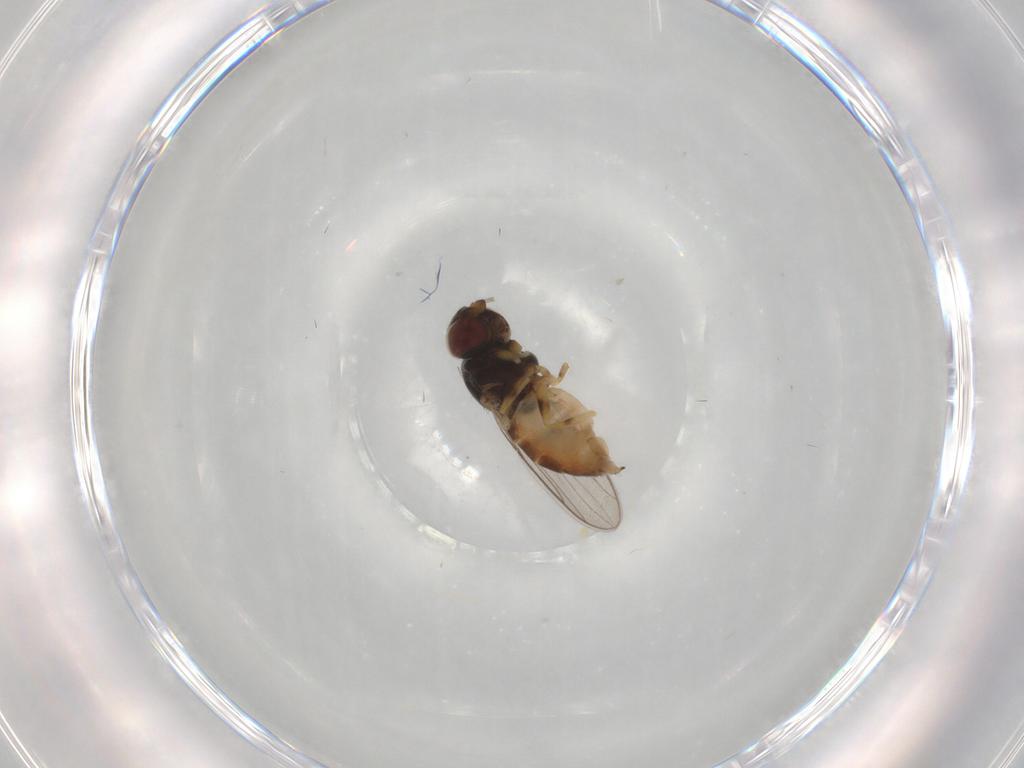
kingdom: Animalia
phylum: Arthropoda
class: Insecta
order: Diptera
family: Chloropidae
